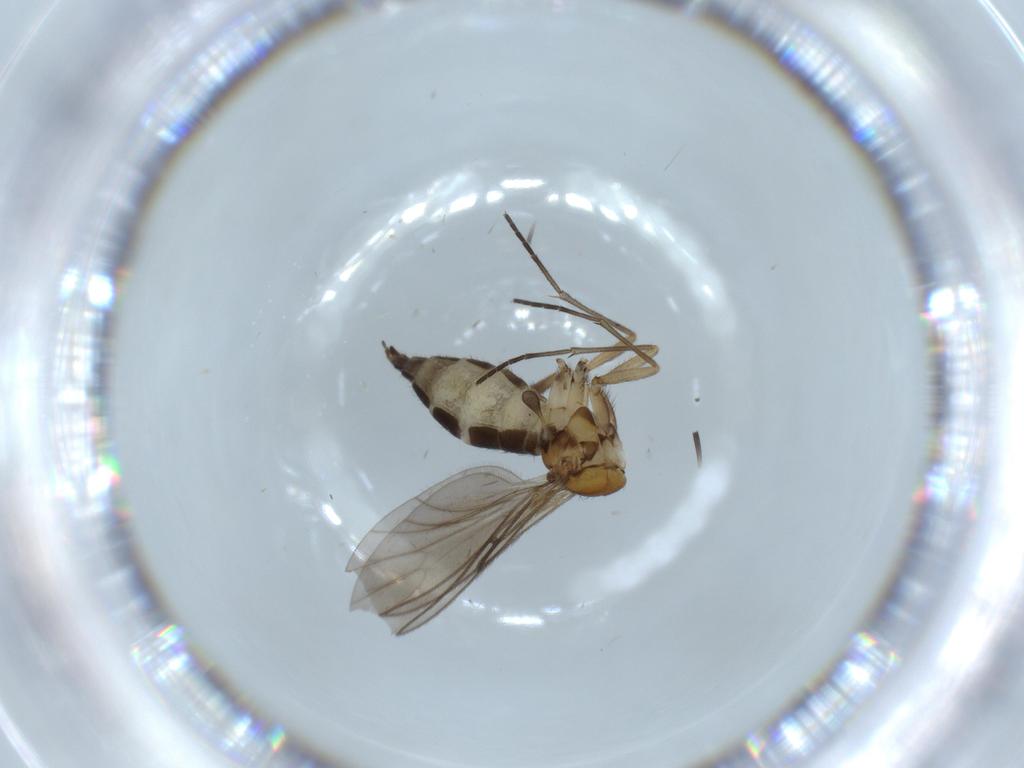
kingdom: Animalia
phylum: Arthropoda
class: Insecta
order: Diptera
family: Sciaridae
